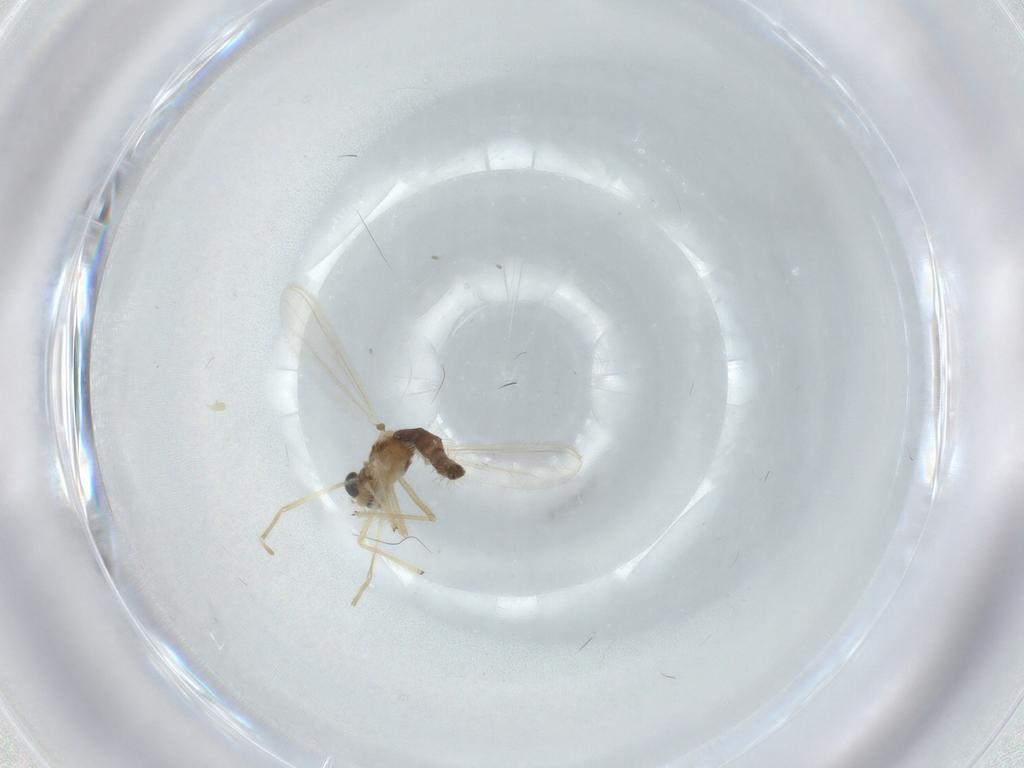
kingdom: Animalia
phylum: Arthropoda
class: Insecta
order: Diptera
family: Chironomidae
